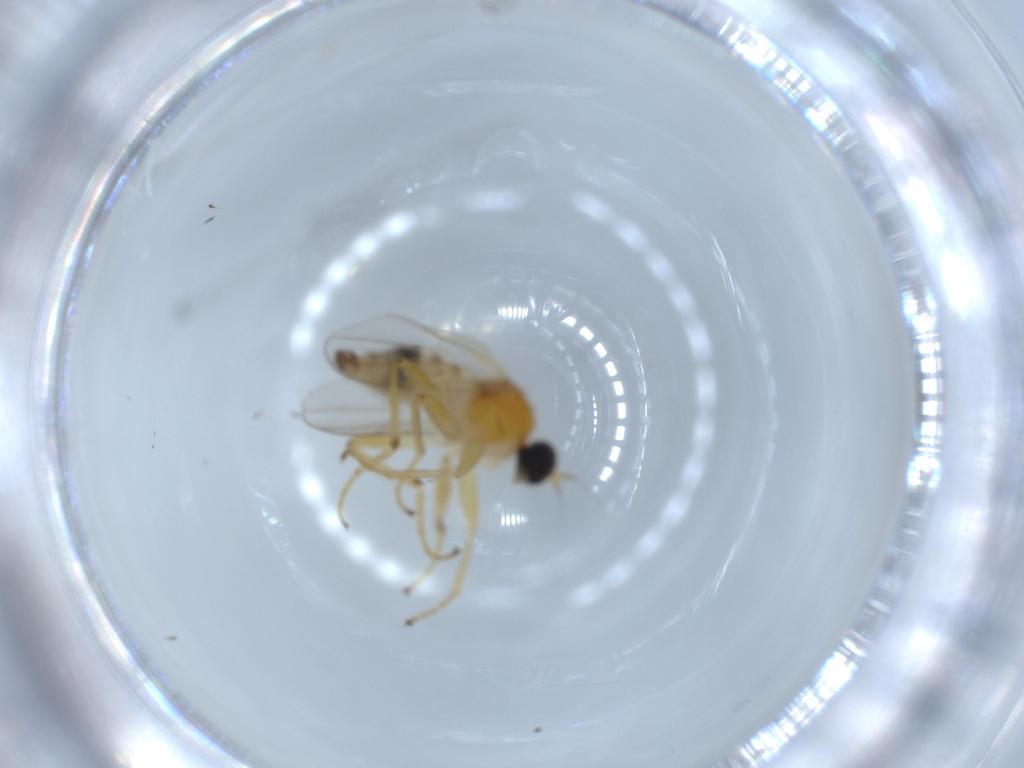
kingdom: Animalia
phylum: Arthropoda
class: Insecta
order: Diptera
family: Hybotidae
